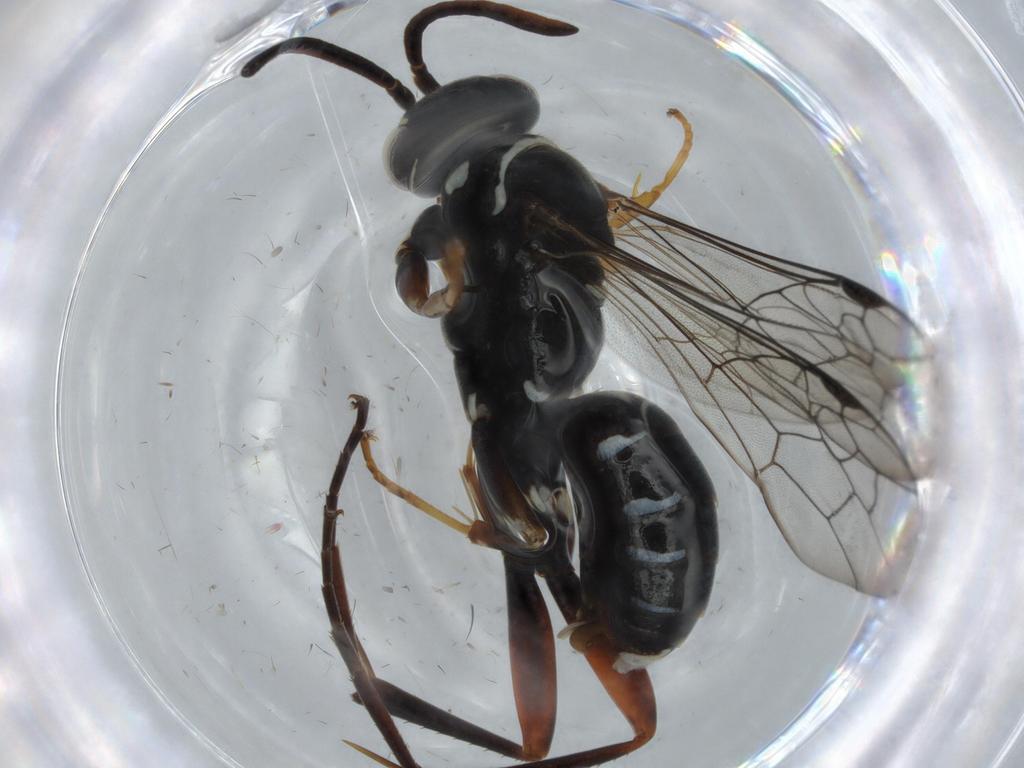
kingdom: Animalia
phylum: Arthropoda
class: Insecta
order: Hymenoptera
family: Pompilidae
